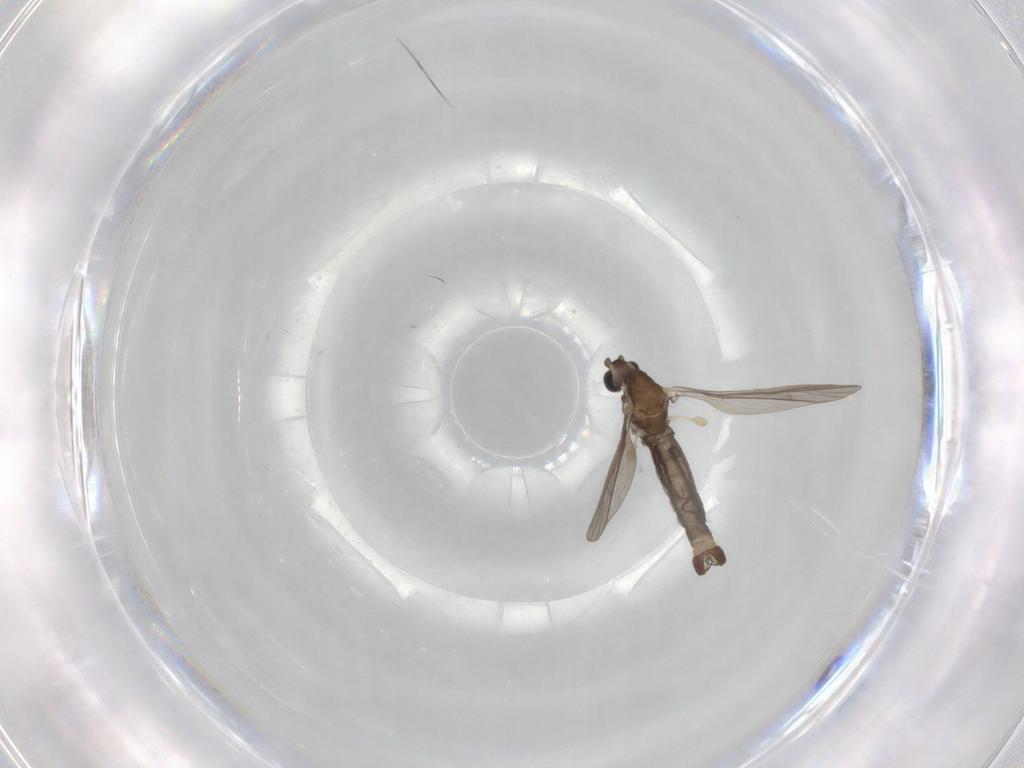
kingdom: Animalia
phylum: Arthropoda
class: Insecta
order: Diptera
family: Limoniidae
